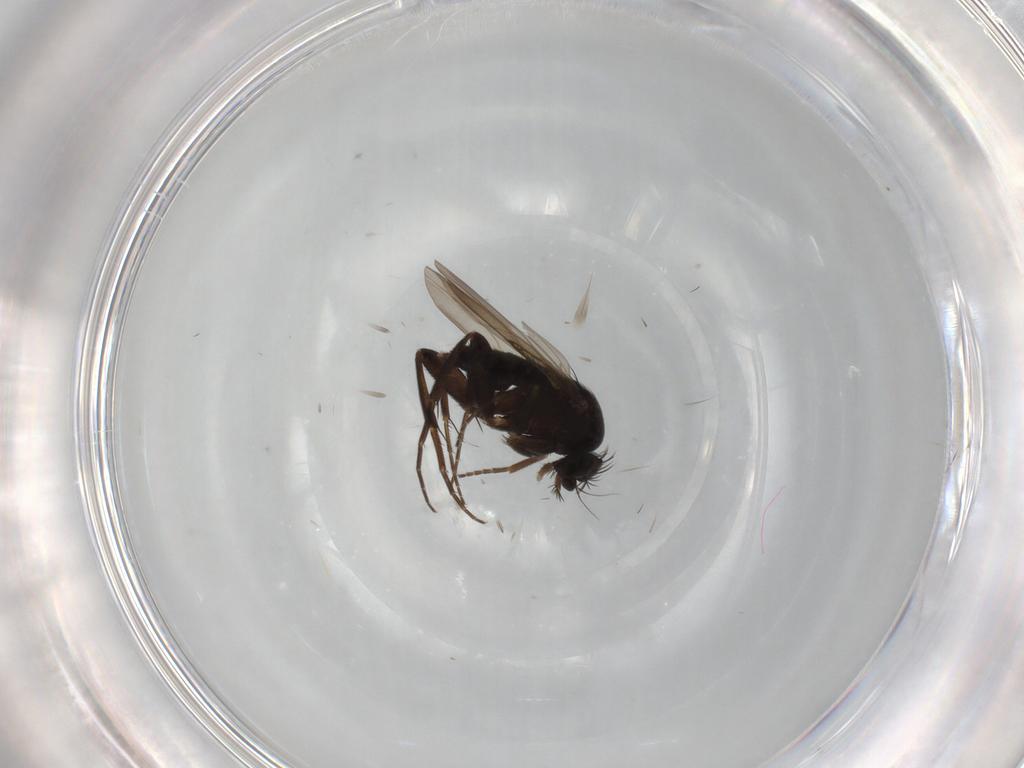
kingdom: Animalia
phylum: Arthropoda
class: Insecta
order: Diptera
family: Phoridae
